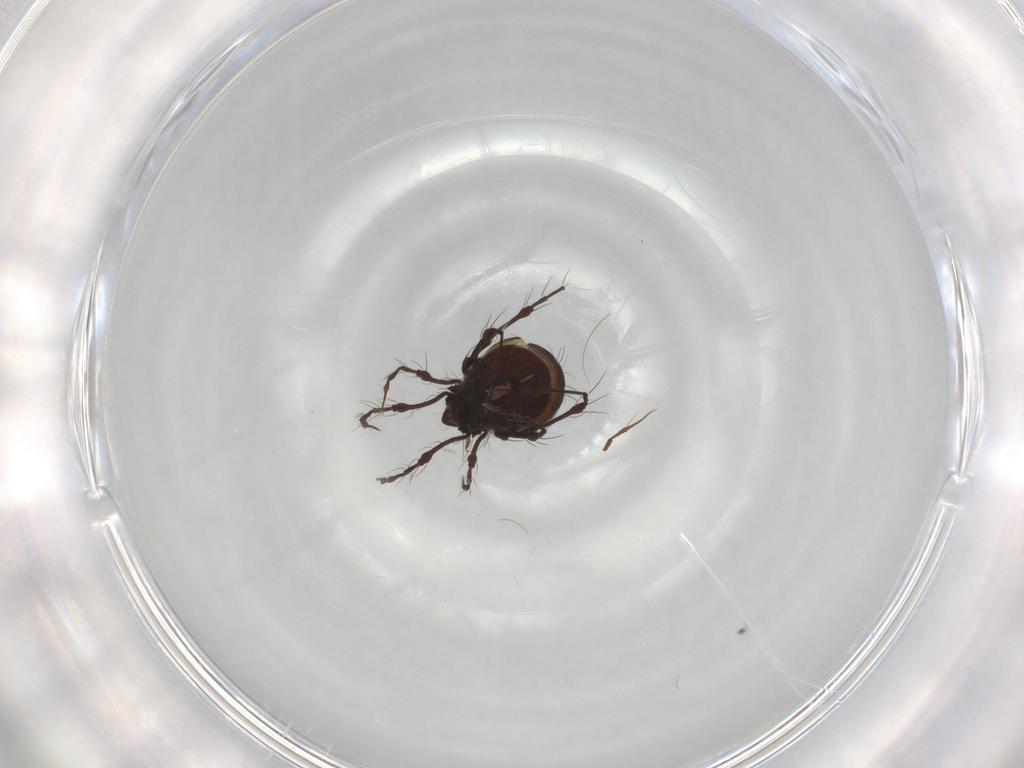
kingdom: Animalia
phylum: Arthropoda
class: Arachnida
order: Sarcoptiformes
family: Damaeidae
